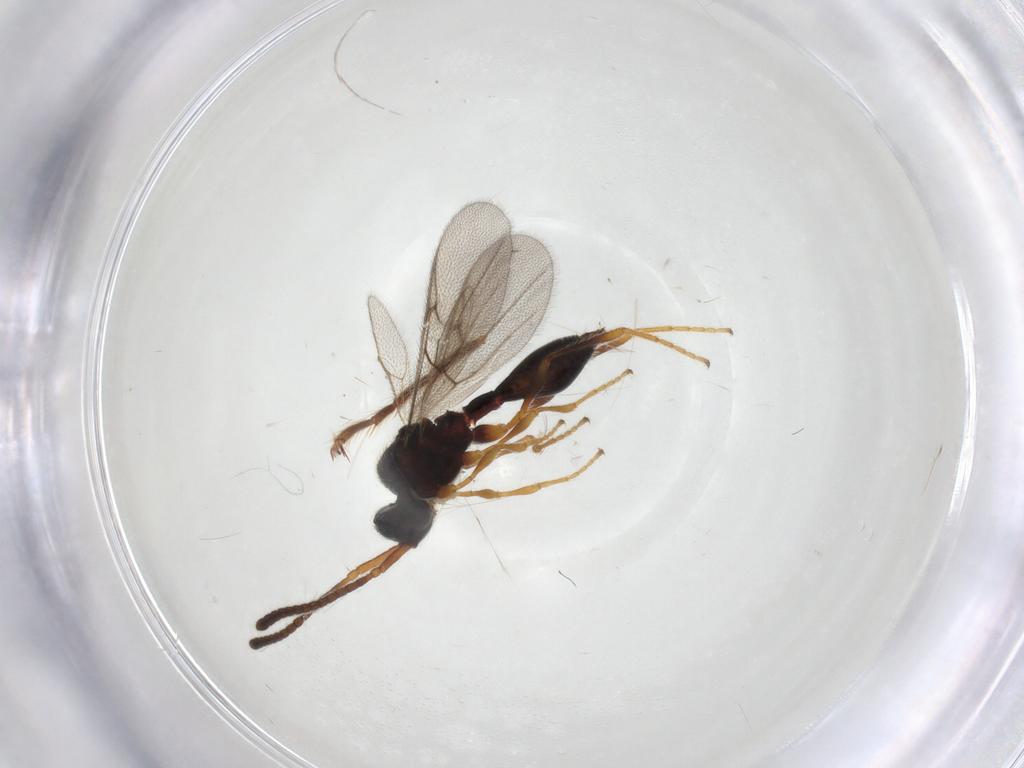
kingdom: Animalia
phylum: Arthropoda
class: Insecta
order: Hymenoptera
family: Diapriidae
